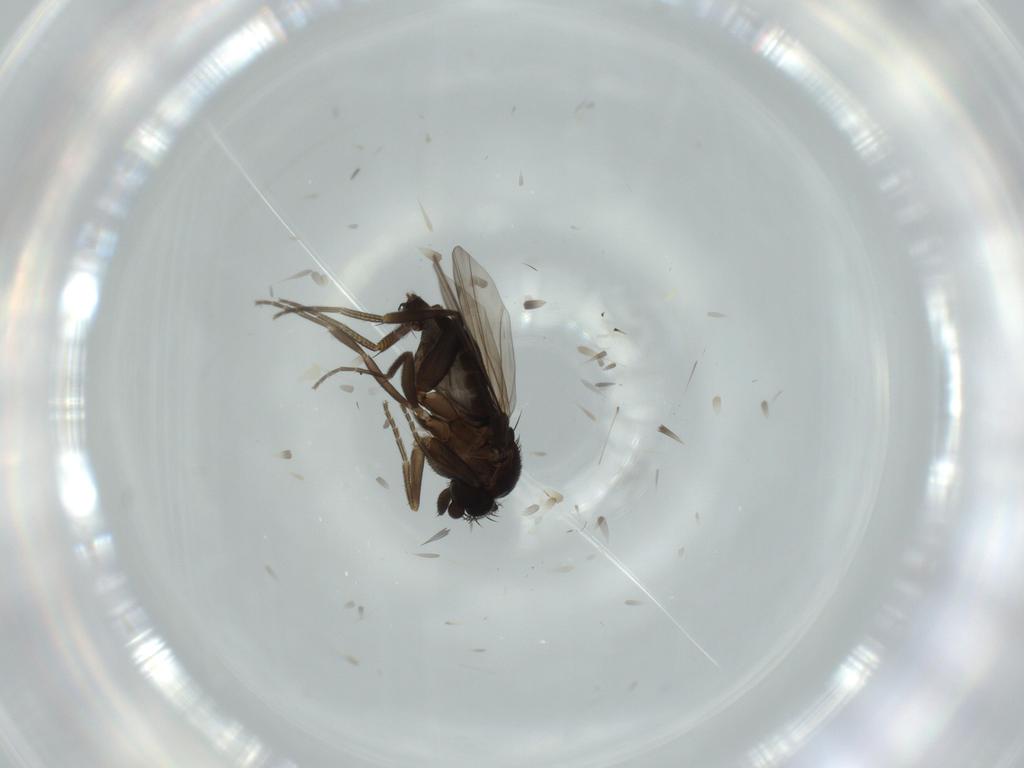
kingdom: Animalia
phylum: Arthropoda
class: Insecta
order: Diptera
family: Phoridae
